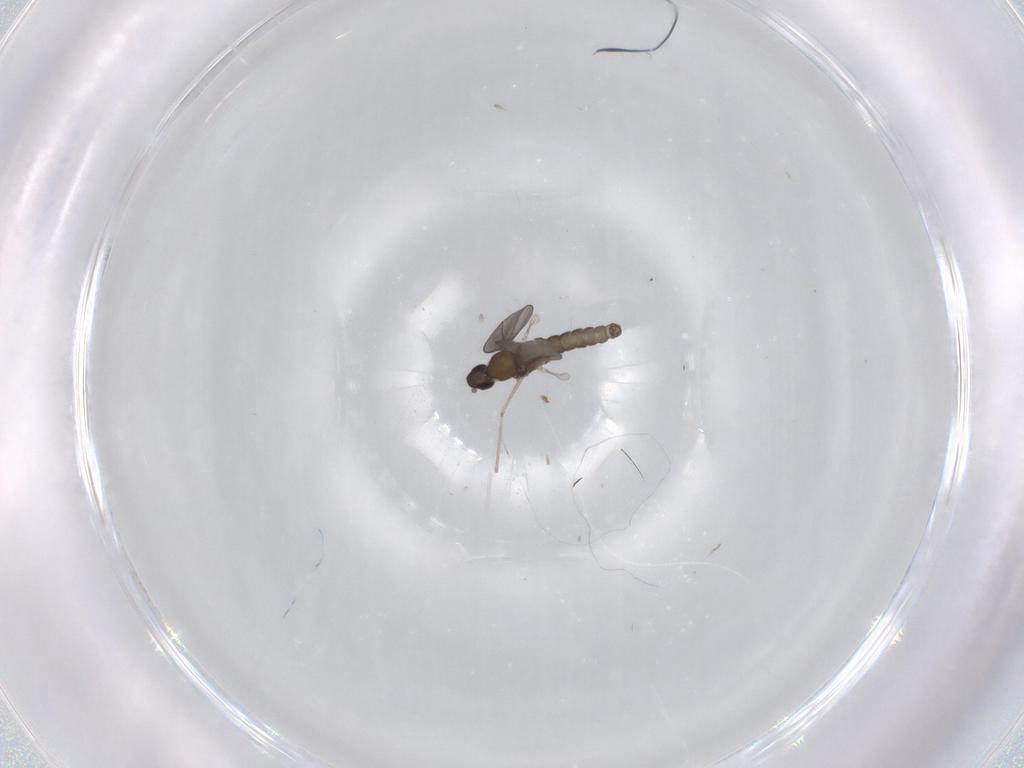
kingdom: Animalia
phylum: Arthropoda
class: Insecta
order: Diptera
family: Cecidomyiidae
